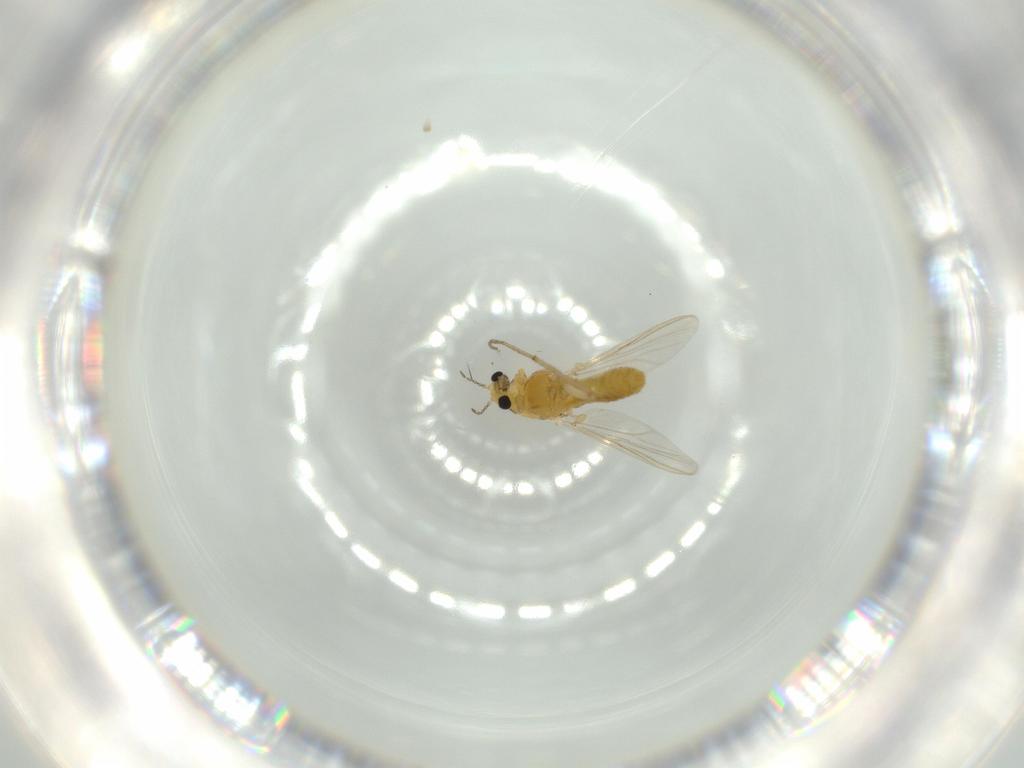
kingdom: Animalia
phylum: Arthropoda
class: Insecta
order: Diptera
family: Chironomidae
